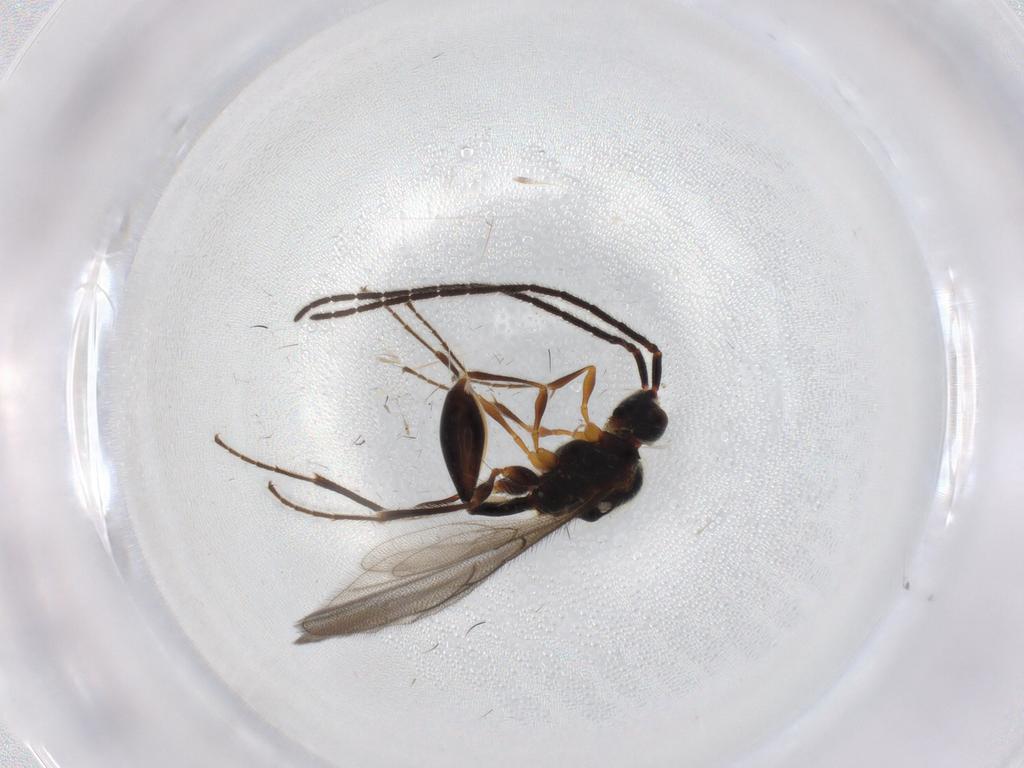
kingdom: Animalia
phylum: Arthropoda
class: Insecta
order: Hymenoptera
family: Diapriidae
